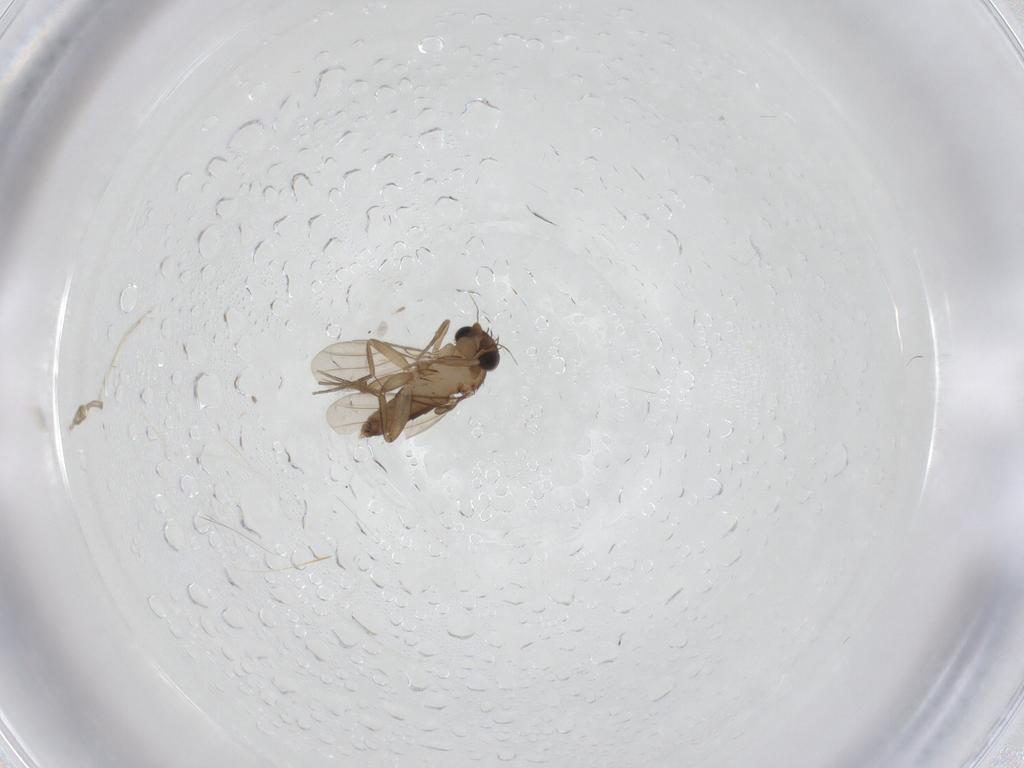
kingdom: Animalia
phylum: Arthropoda
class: Insecta
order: Diptera
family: Phoridae
